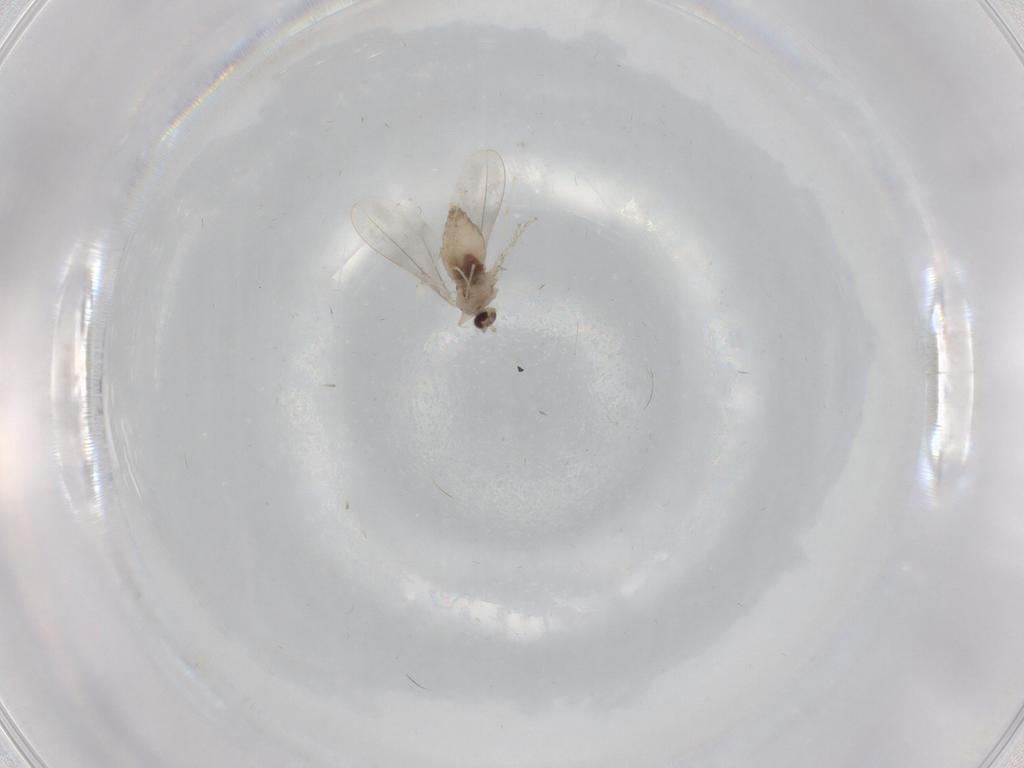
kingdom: Animalia
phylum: Arthropoda
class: Insecta
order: Diptera
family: Cecidomyiidae
